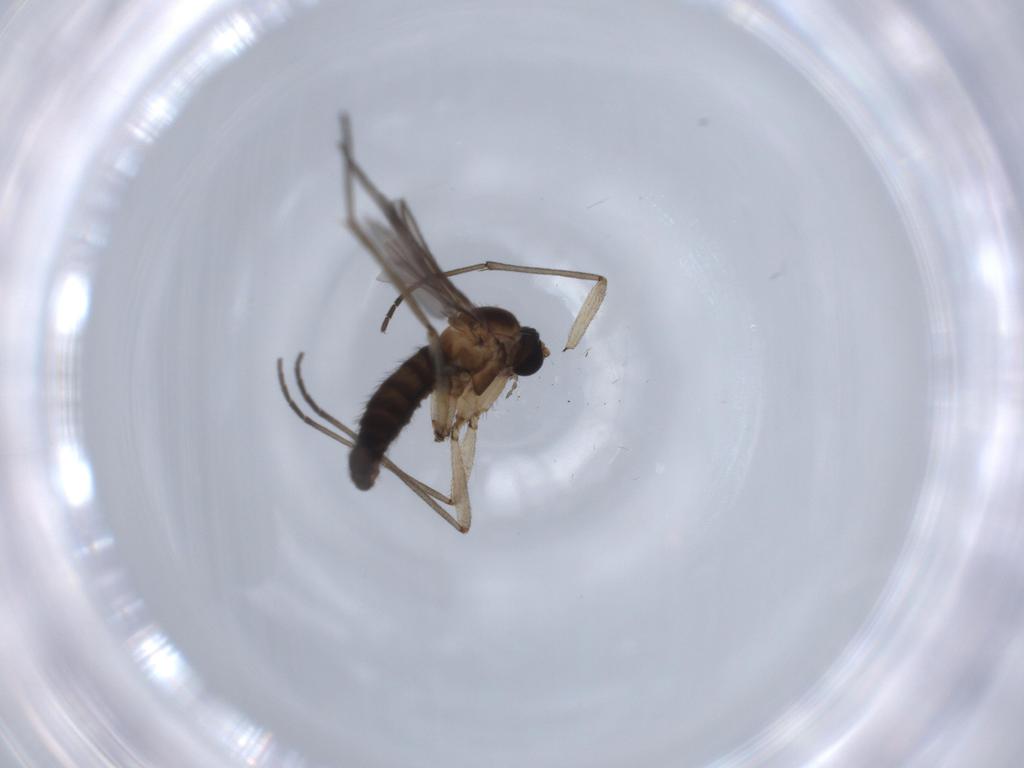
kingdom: Animalia
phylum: Arthropoda
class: Insecta
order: Diptera
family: Sciaridae
